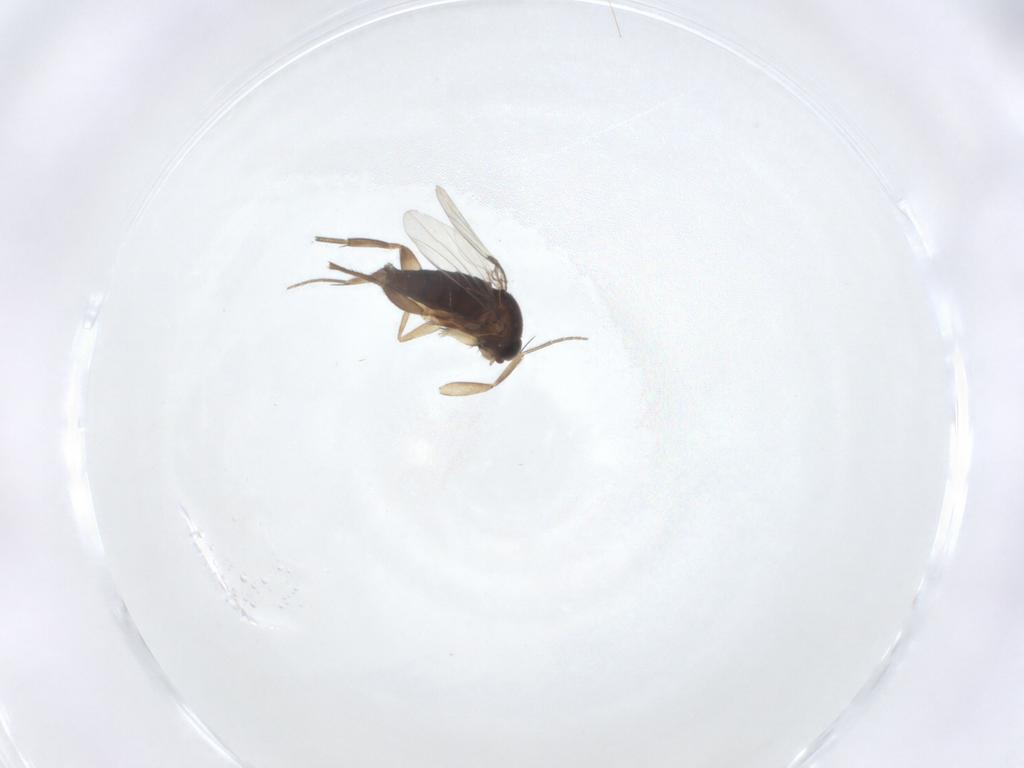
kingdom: Animalia
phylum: Arthropoda
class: Insecta
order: Diptera
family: Phoridae
